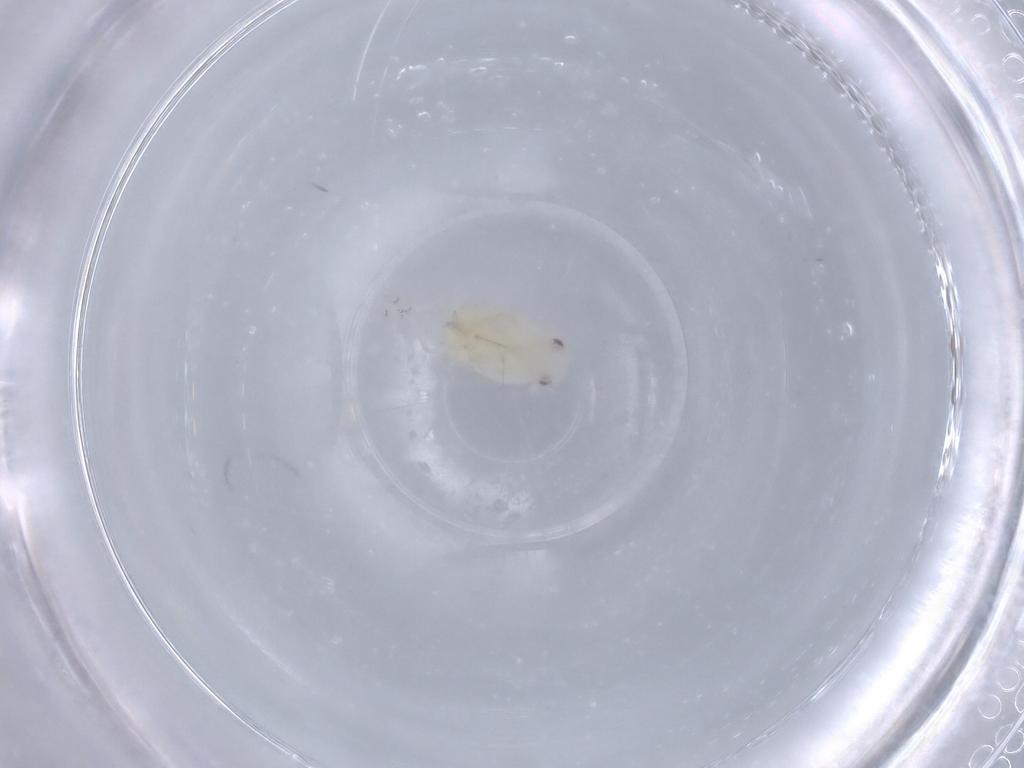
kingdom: Animalia
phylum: Arthropoda
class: Insecta
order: Hemiptera
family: Flatidae
